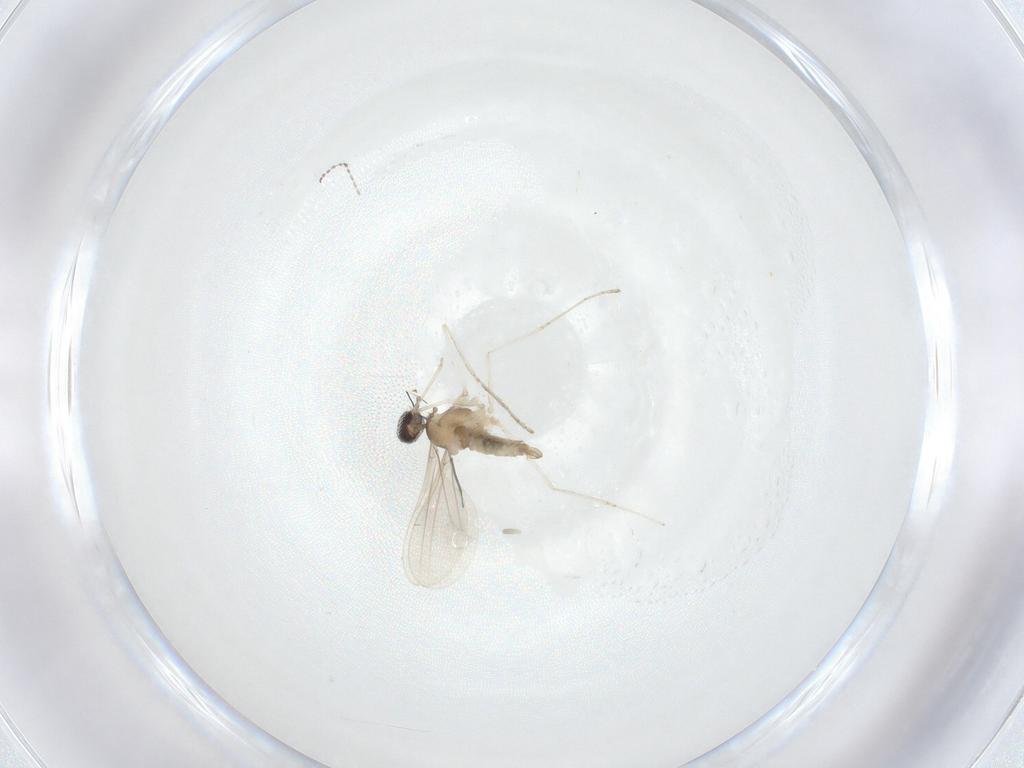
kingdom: Animalia
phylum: Arthropoda
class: Insecta
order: Diptera
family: Cecidomyiidae
